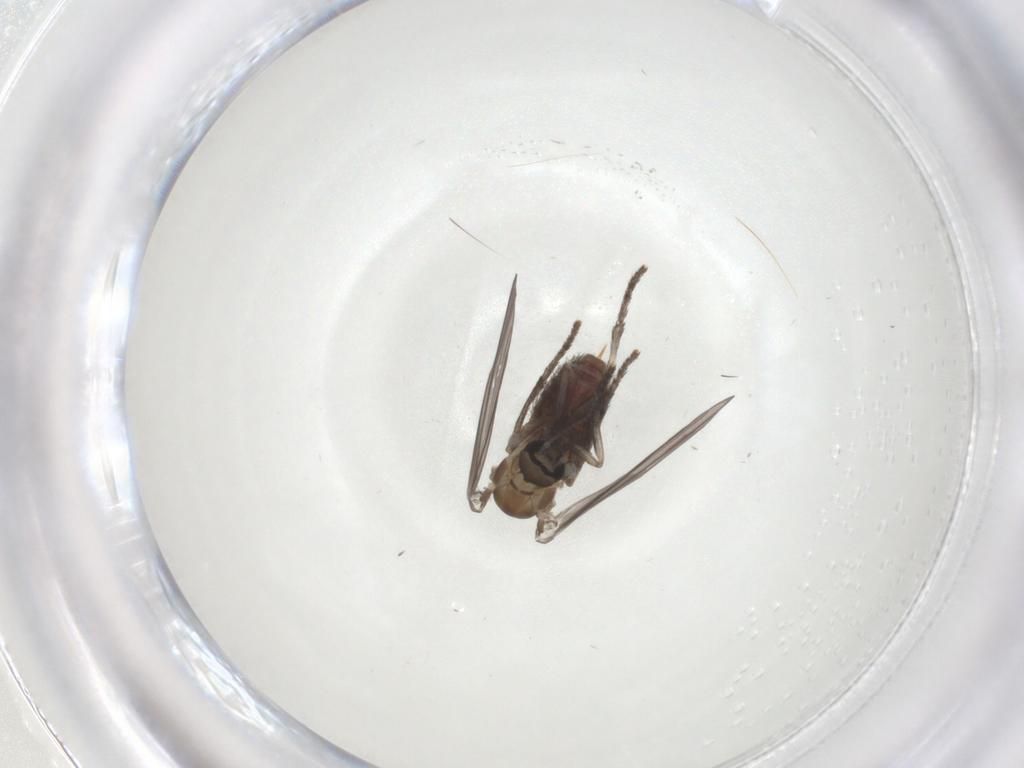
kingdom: Animalia
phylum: Arthropoda
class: Insecta
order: Diptera
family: Psychodidae
